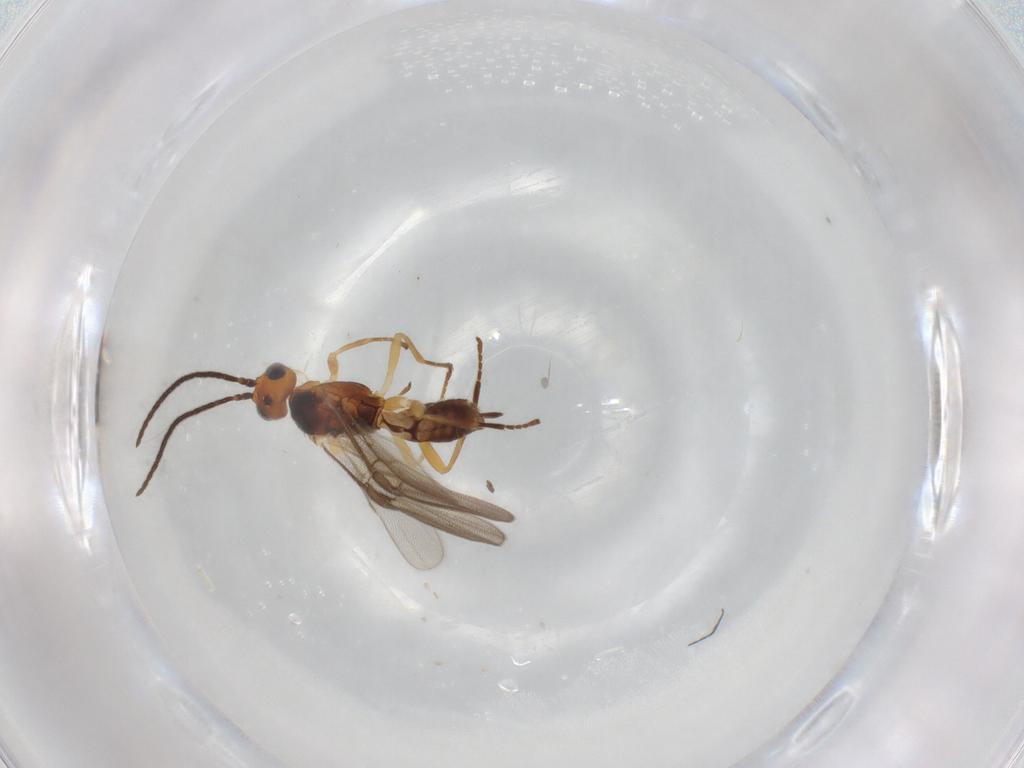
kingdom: Animalia
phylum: Arthropoda
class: Insecta
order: Hymenoptera
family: Braconidae
